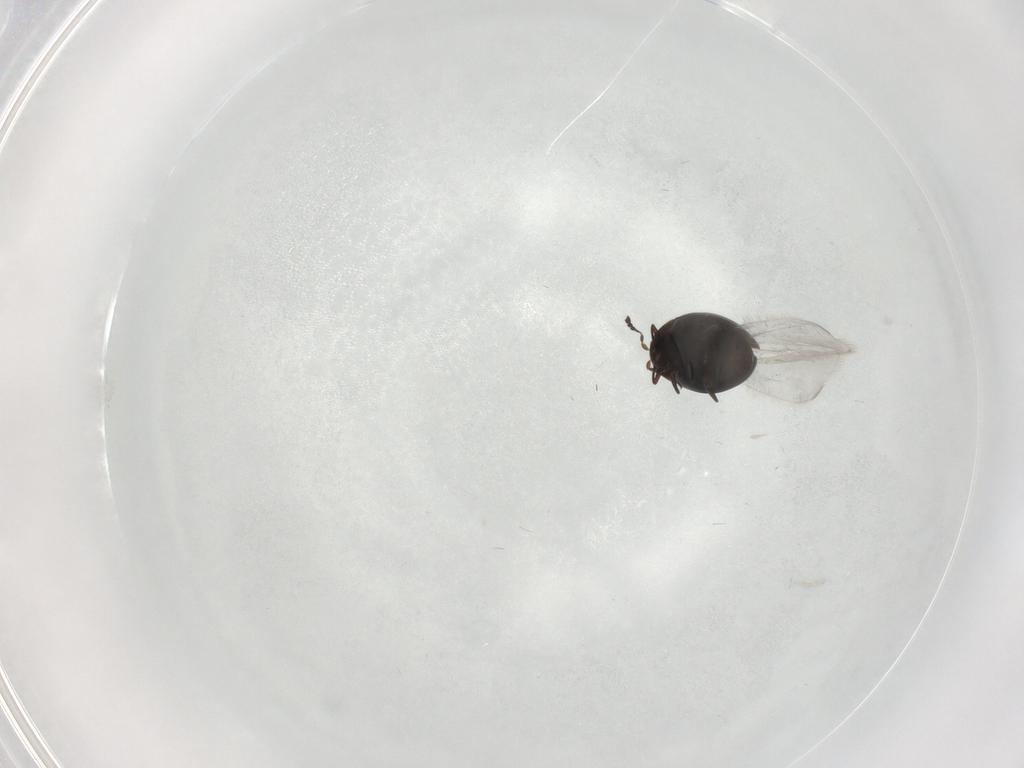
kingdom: Animalia
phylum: Arthropoda
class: Insecta
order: Coleoptera
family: Corylophidae
